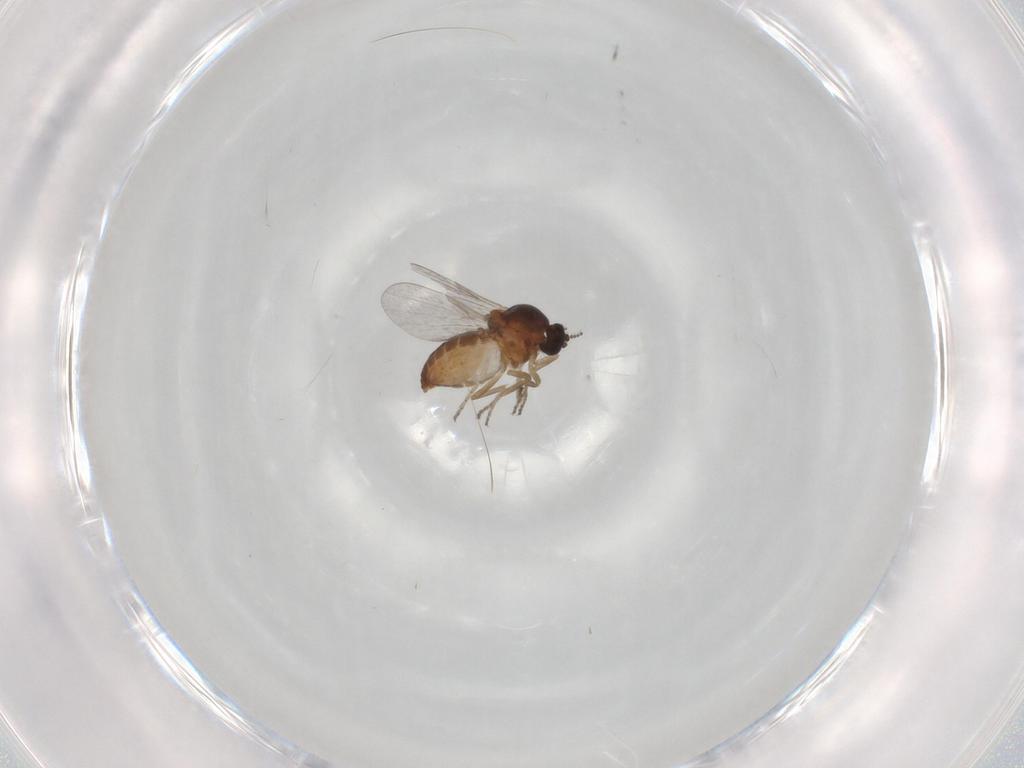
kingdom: Animalia
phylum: Arthropoda
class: Insecta
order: Diptera
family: Ceratopogonidae
